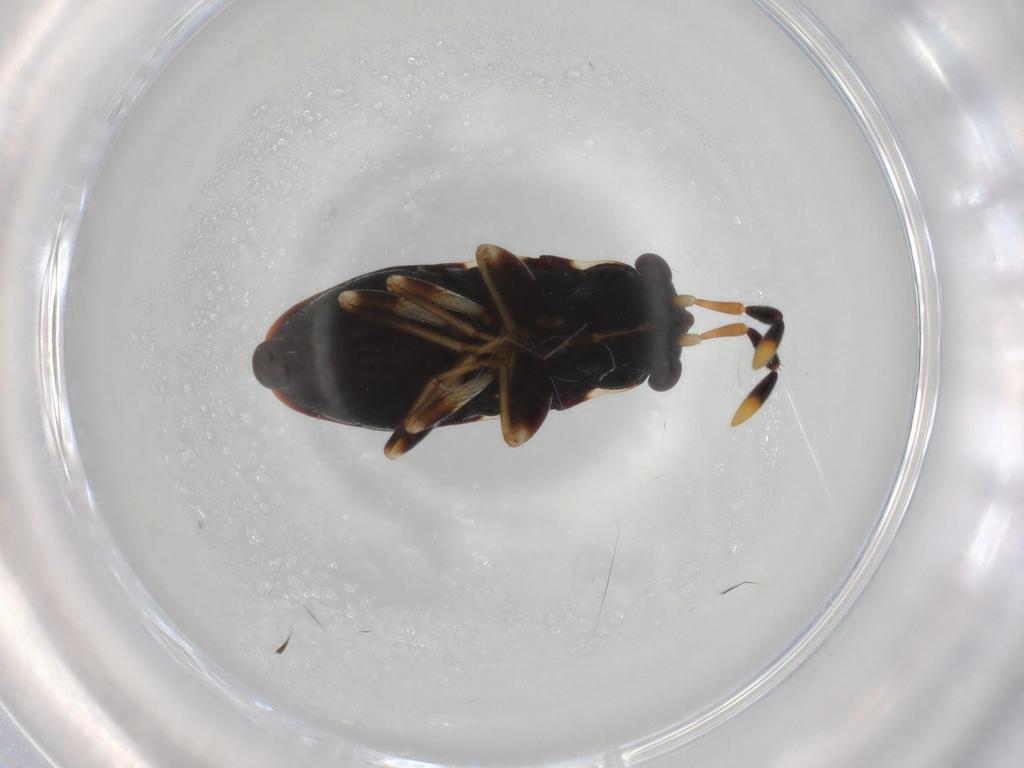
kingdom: Animalia
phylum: Arthropoda
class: Insecta
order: Hemiptera
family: Rhyparochromidae
